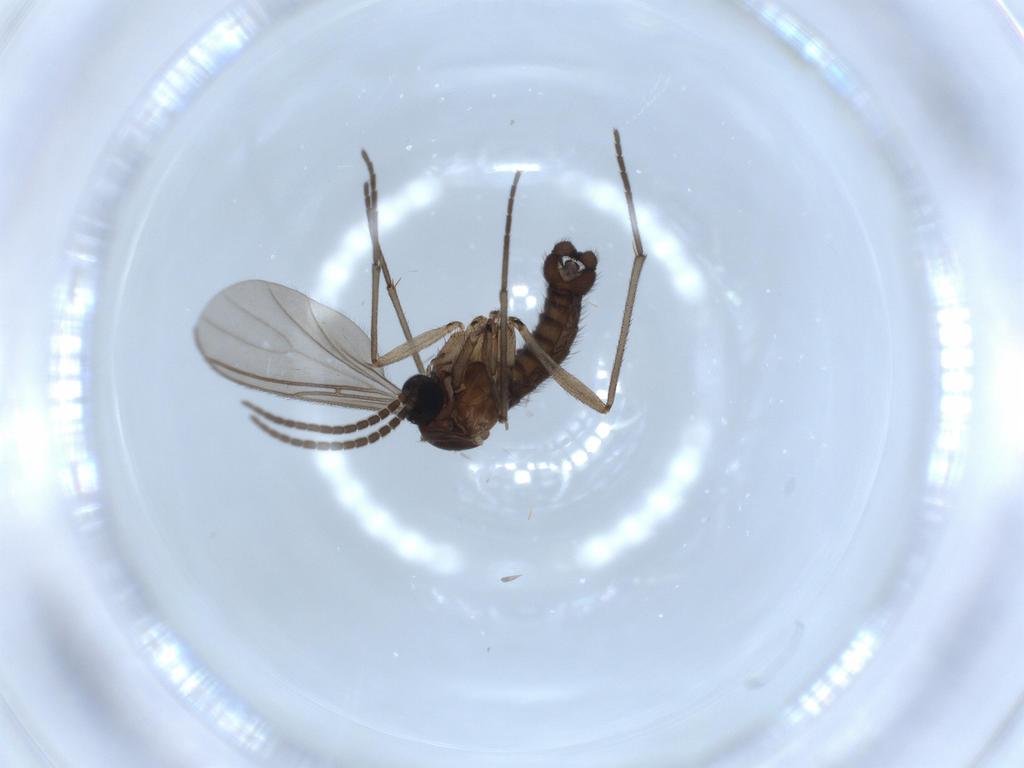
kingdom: Animalia
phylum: Arthropoda
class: Insecta
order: Diptera
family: Sciaridae
